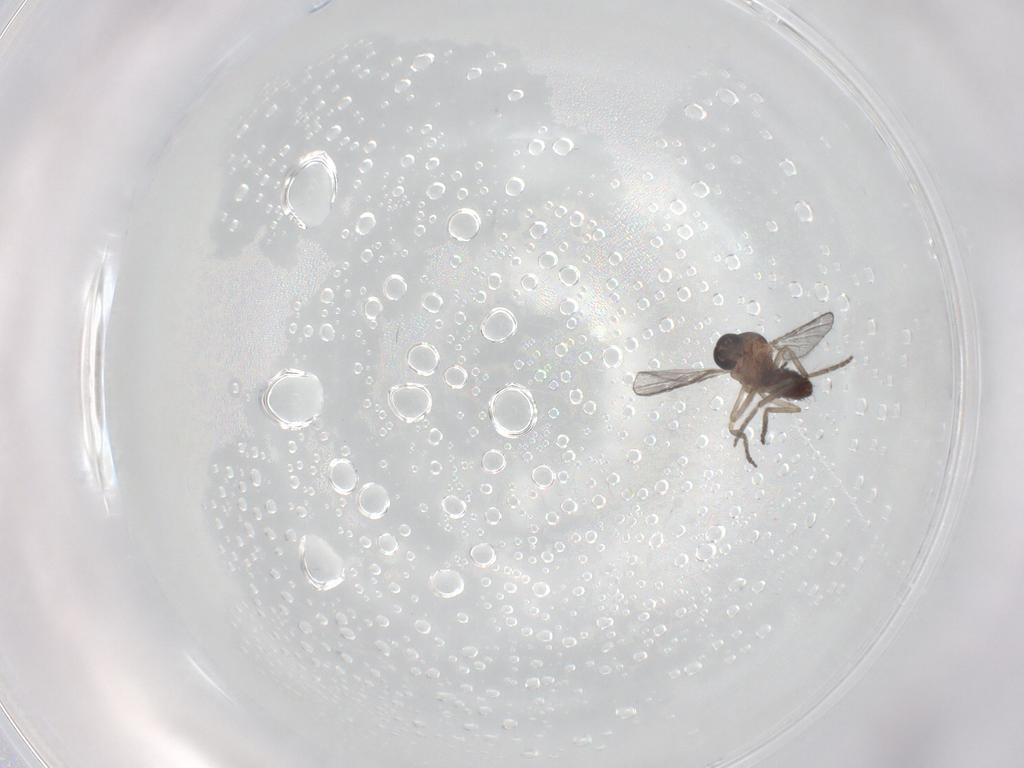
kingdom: Animalia
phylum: Arthropoda
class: Insecta
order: Diptera
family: Ceratopogonidae
